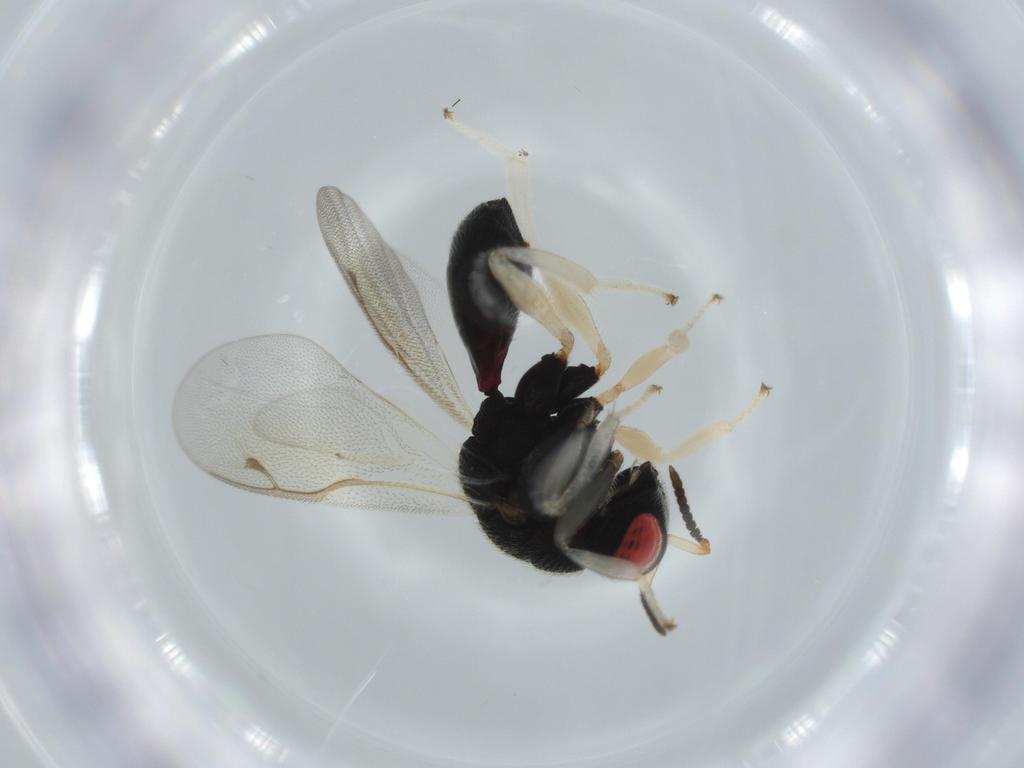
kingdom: Animalia
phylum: Arthropoda
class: Insecta
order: Hymenoptera
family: Eurytomidae
